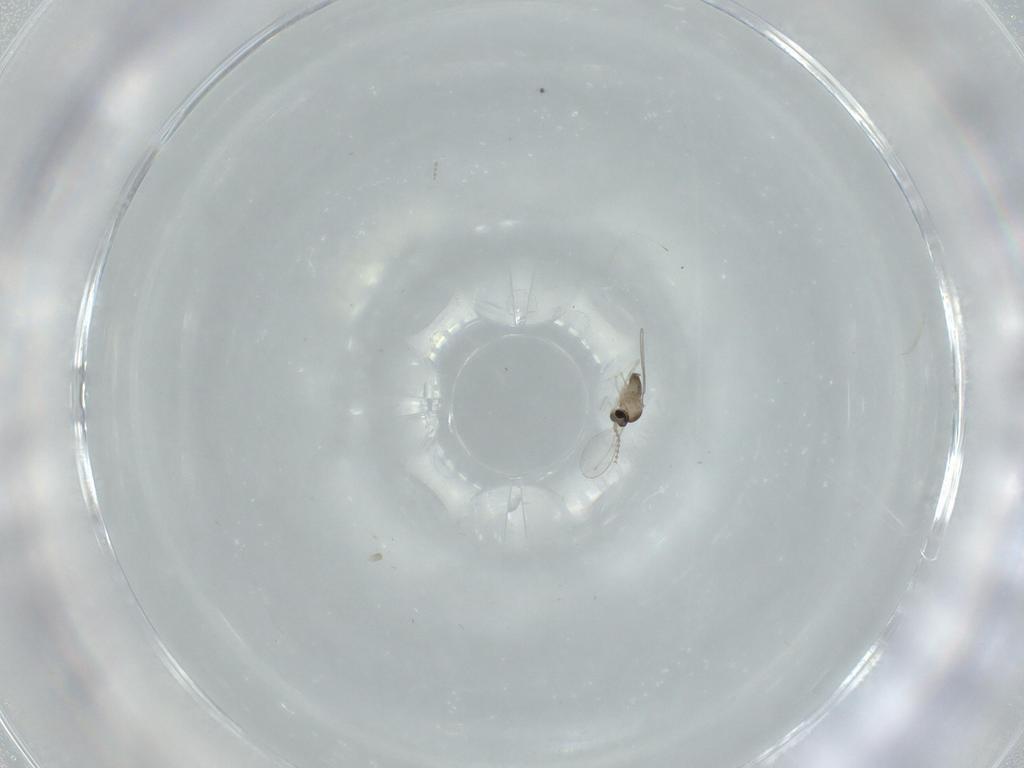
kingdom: Animalia
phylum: Arthropoda
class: Insecta
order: Diptera
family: Cecidomyiidae
